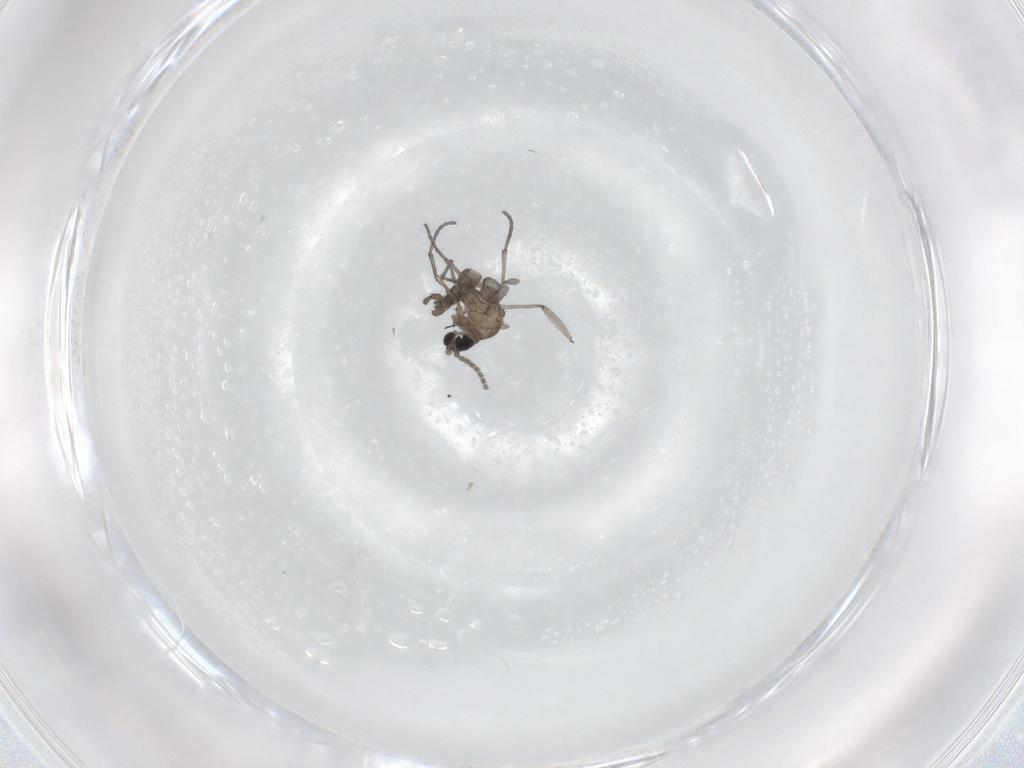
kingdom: Animalia
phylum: Arthropoda
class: Insecta
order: Diptera
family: Sciaridae
